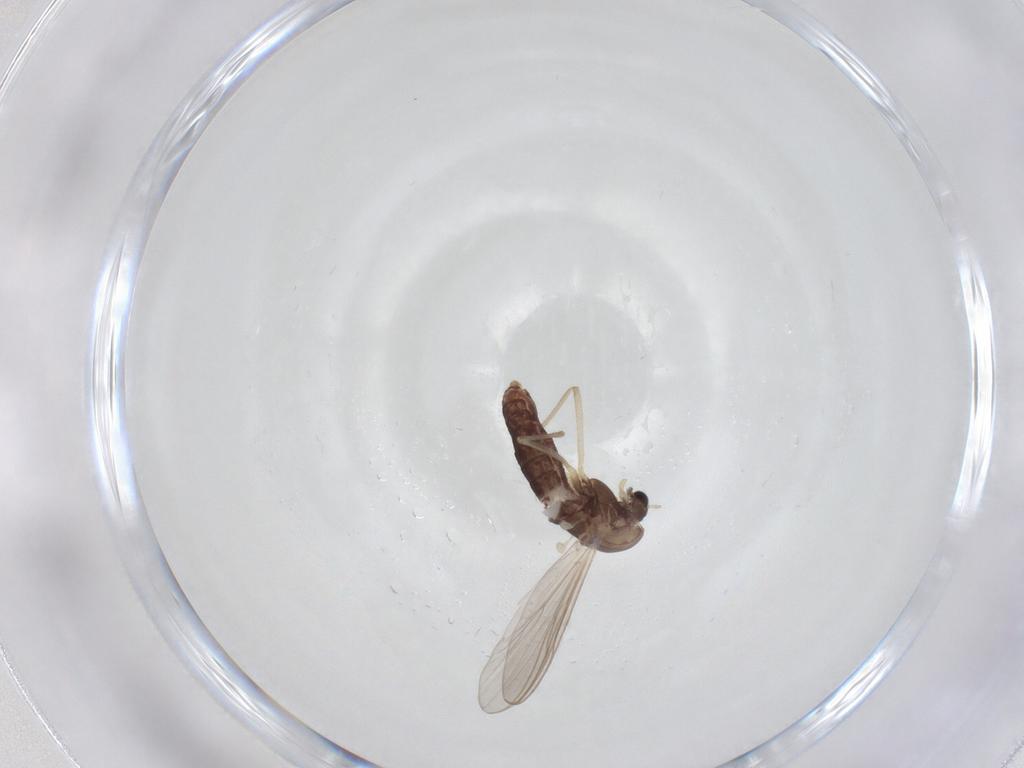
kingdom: Animalia
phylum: Arthropoda
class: Insecta
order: Diptera
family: Chironomidae
